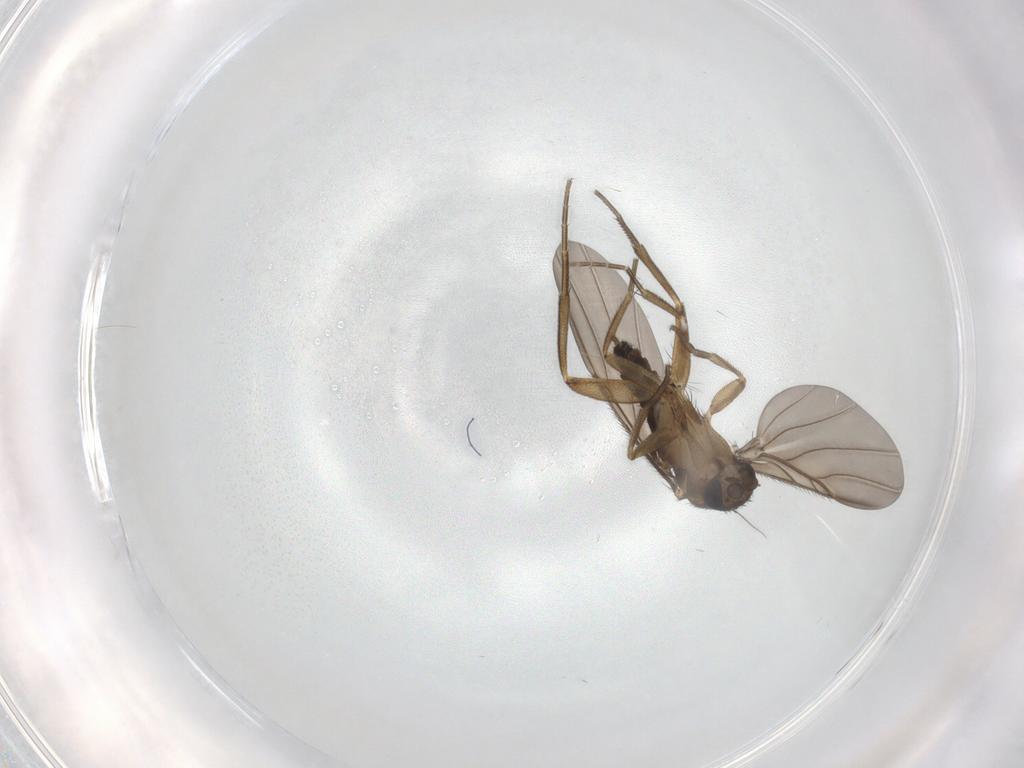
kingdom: Animalia
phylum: Arthropoda
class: Insecta
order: Diptera
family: Phoridae
